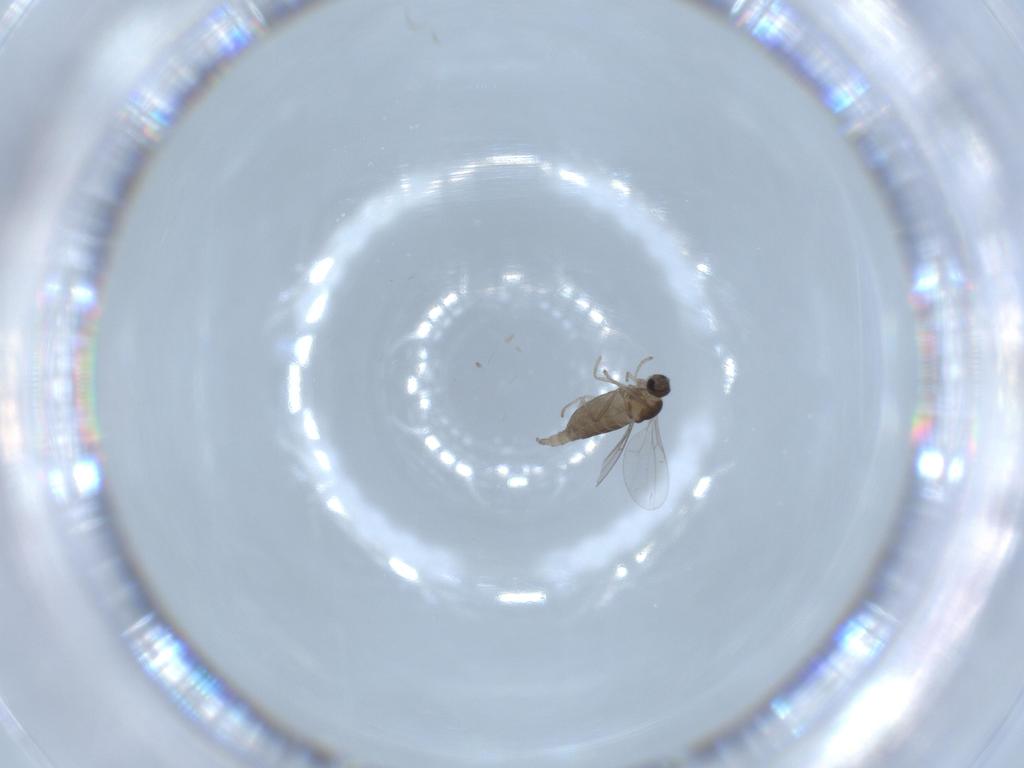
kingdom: Animalia
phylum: Arthropoda
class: Insecta
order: Diptera
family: Cecidomyiidae
